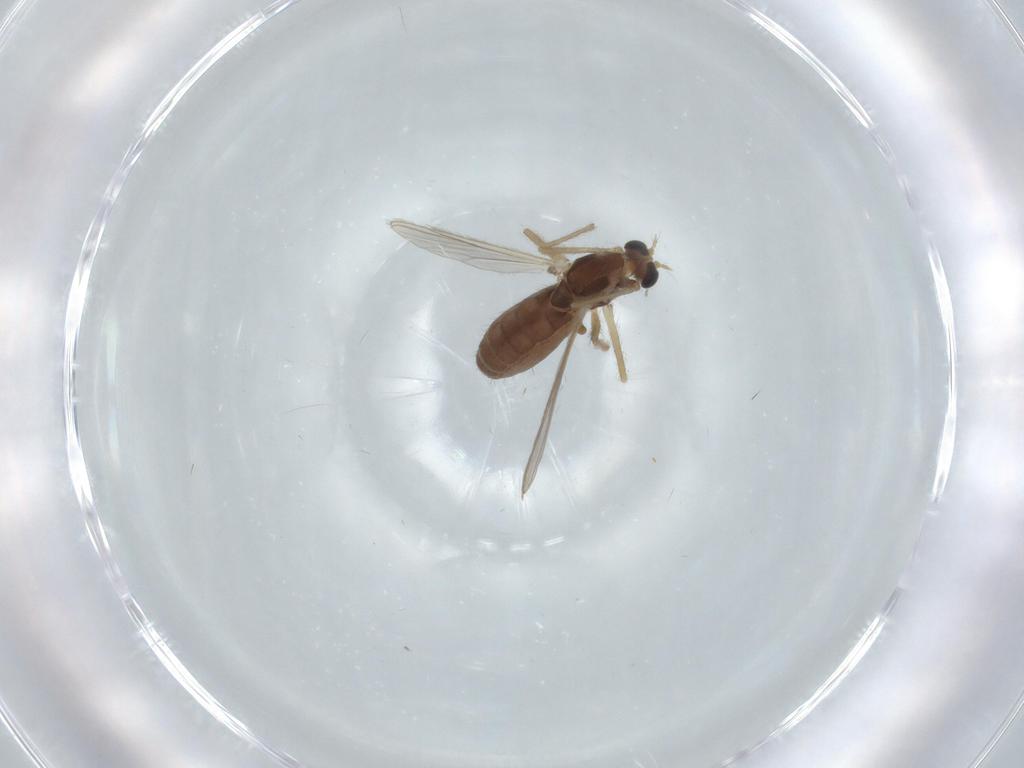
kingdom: Animalia
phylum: Arthropoda
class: Insecta
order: Diptera
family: Chironomidae
